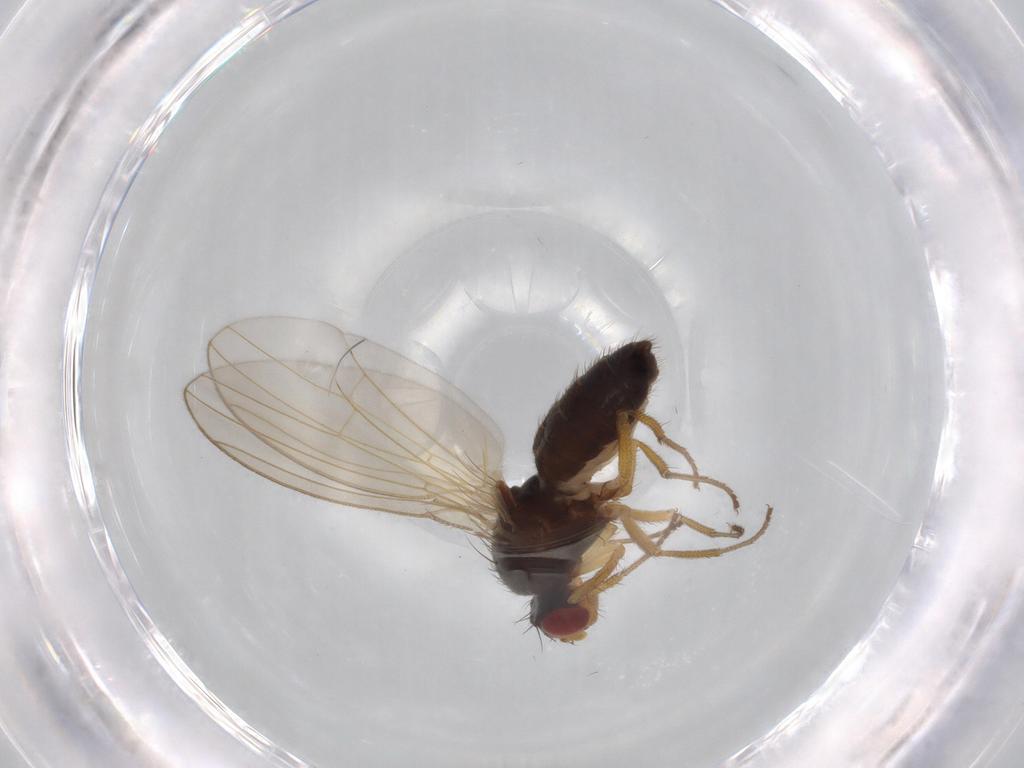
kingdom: Animalia
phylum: Arthropoda
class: Insecta
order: Diptera
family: Drosophilidae
